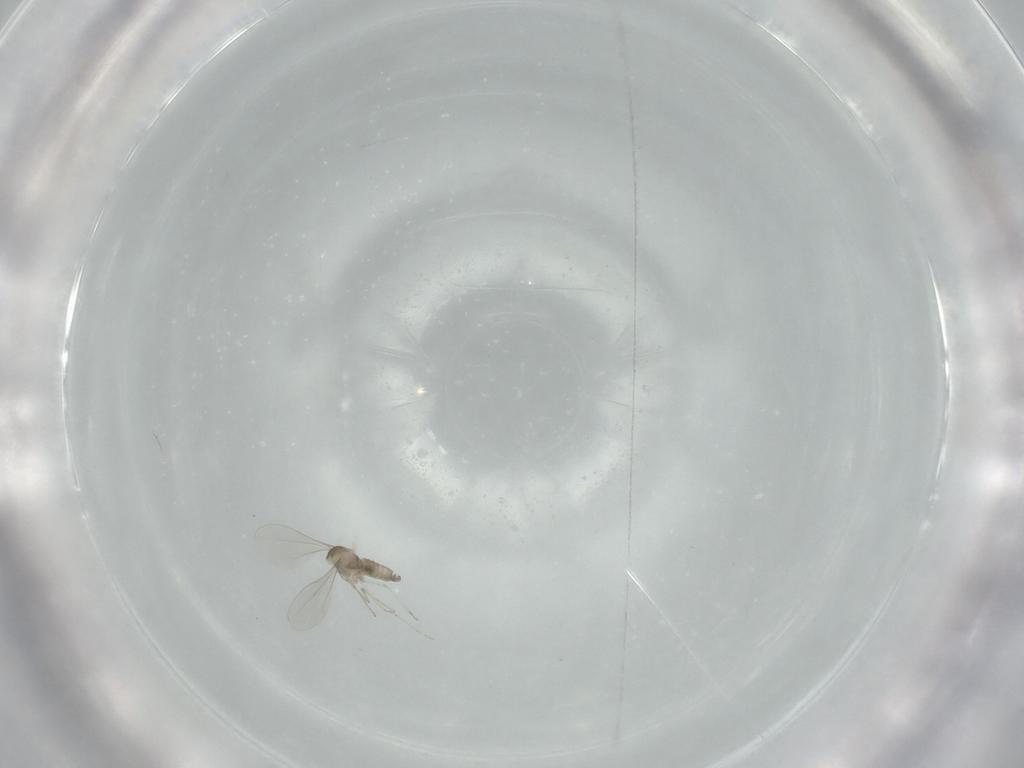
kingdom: Animalia
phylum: Arthropoda
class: Insecta
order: Diptera
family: Cecidomyiidae
